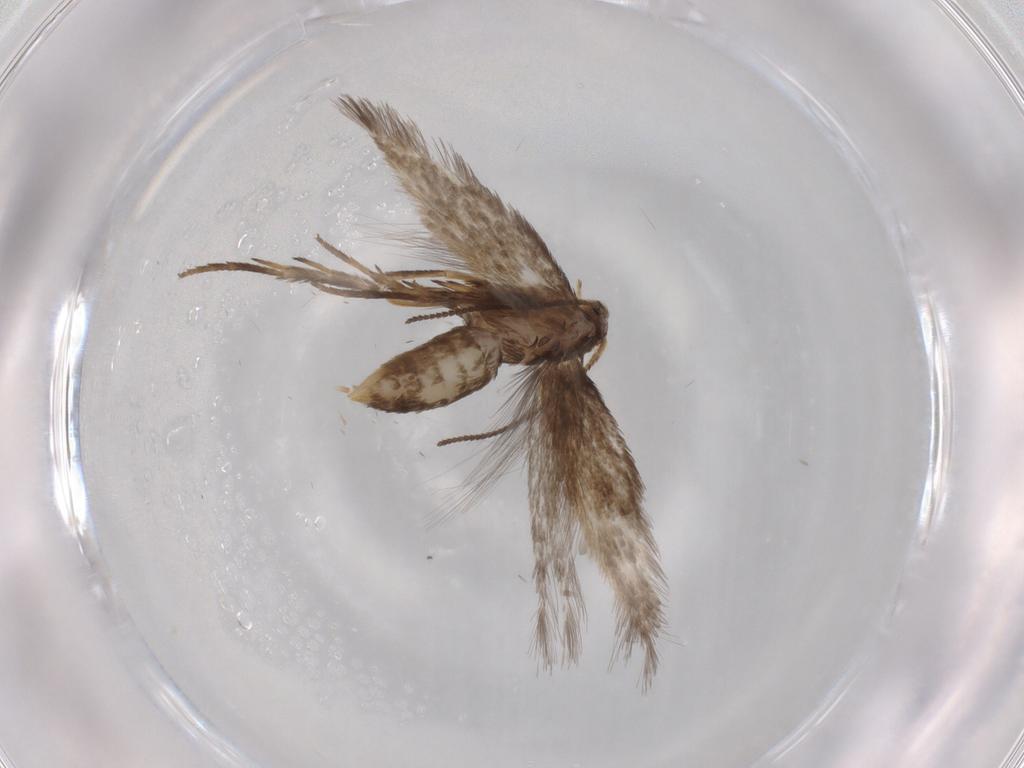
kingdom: Animalia
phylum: Arthropoda
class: Insecta
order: Lepidoptera
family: Nepticulidae
